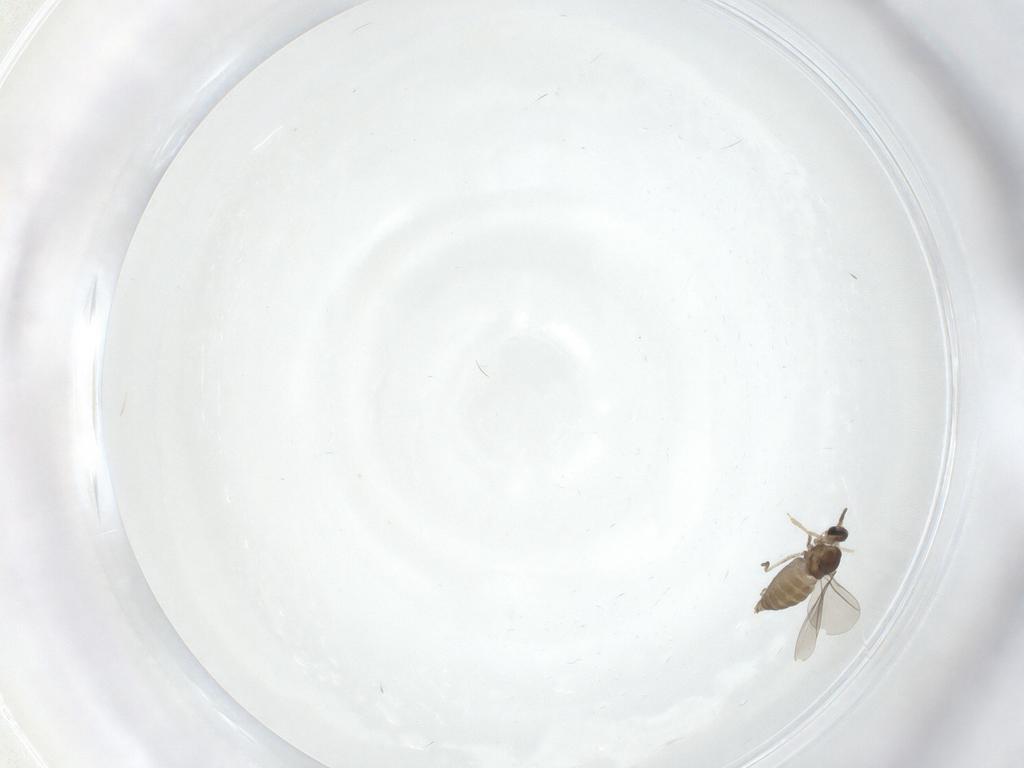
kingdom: Animalia
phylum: Arthropoda
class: Insecta
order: Diptera
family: Cecidomyiidae
